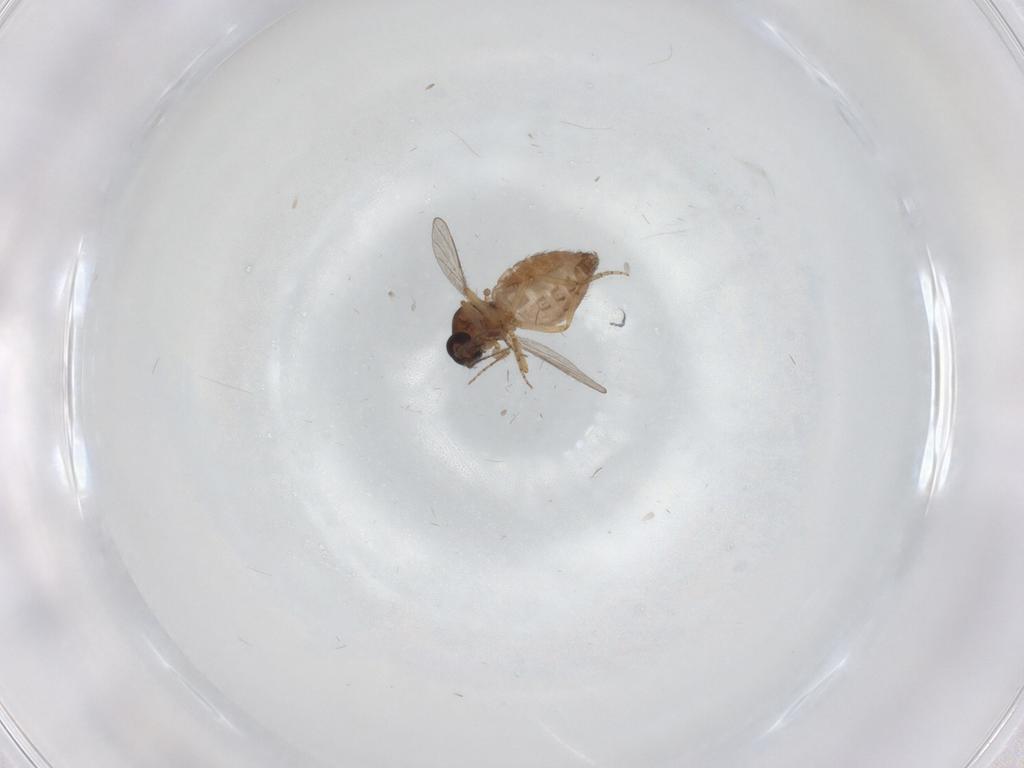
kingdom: Animalia
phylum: Arthropoda
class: Insecta
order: Diptera
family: Ceratopogonidae
